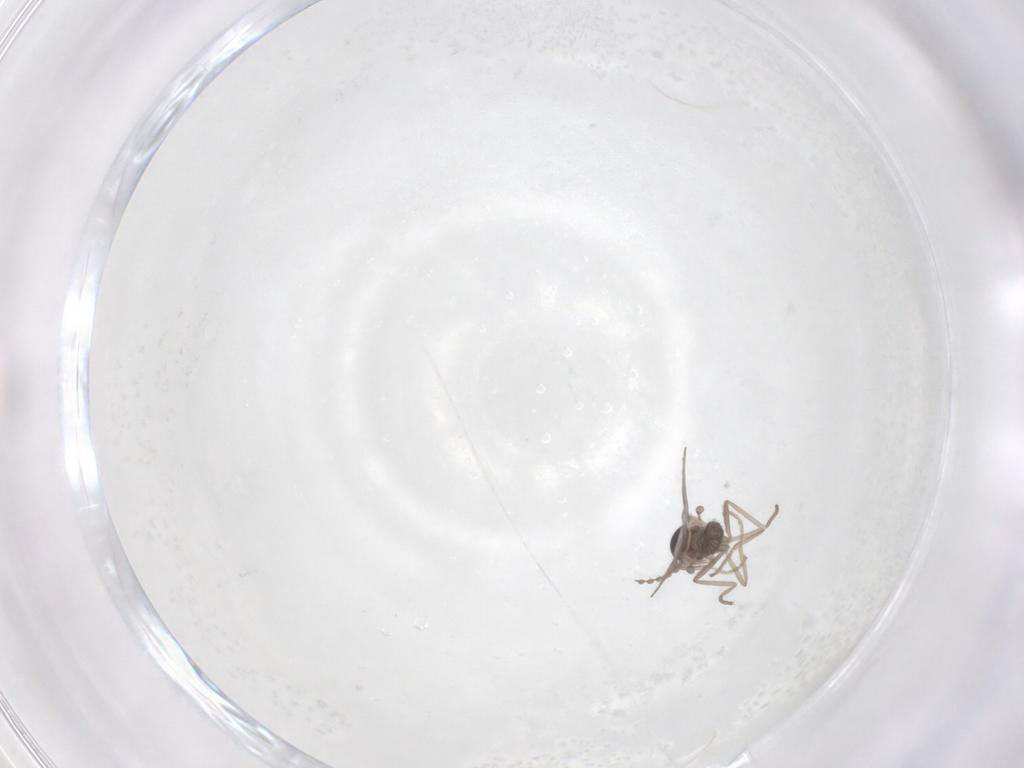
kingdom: Animalia
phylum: Arthropoda
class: Insecta
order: Diptera
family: Cecidomyiidae
